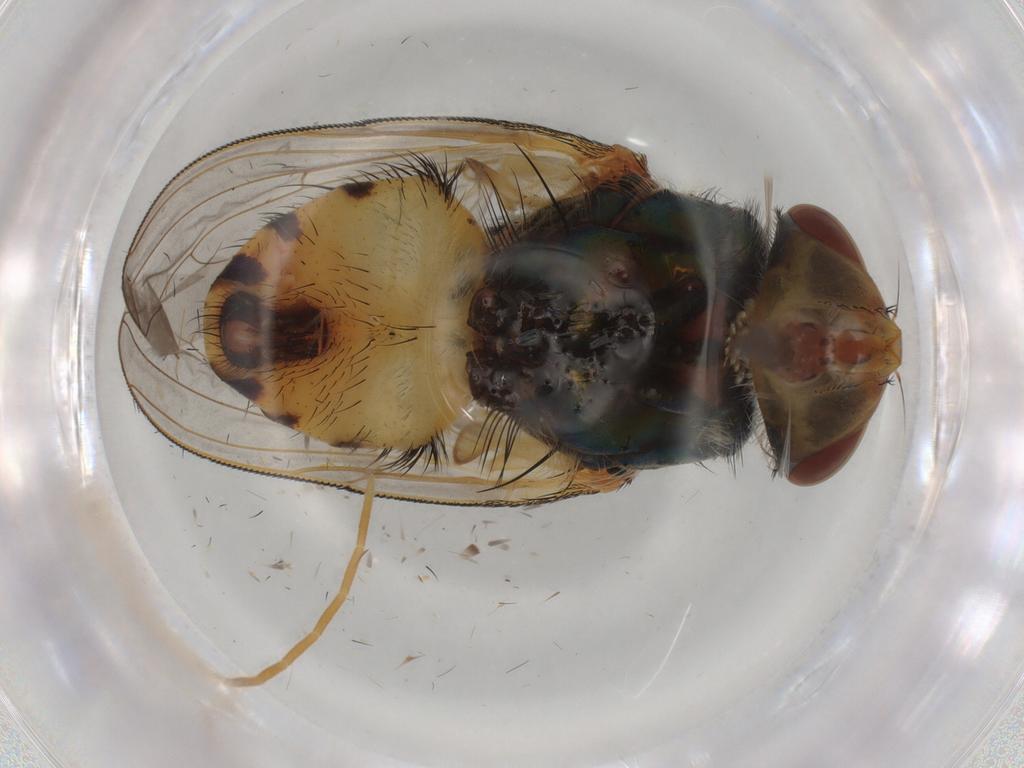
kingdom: Animalia
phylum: Arthropoda
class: Insecta
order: Diptera
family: Calliphoridae
